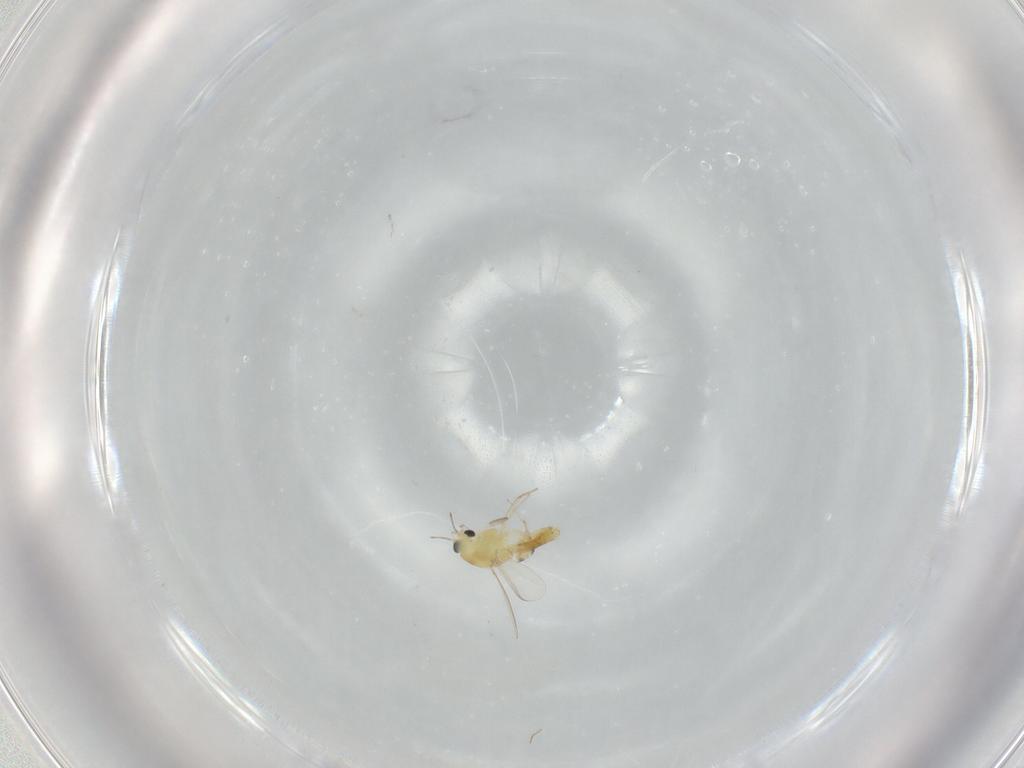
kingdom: Animalia
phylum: Arthropoda
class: Insecta
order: Diptera
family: Chironomidae
